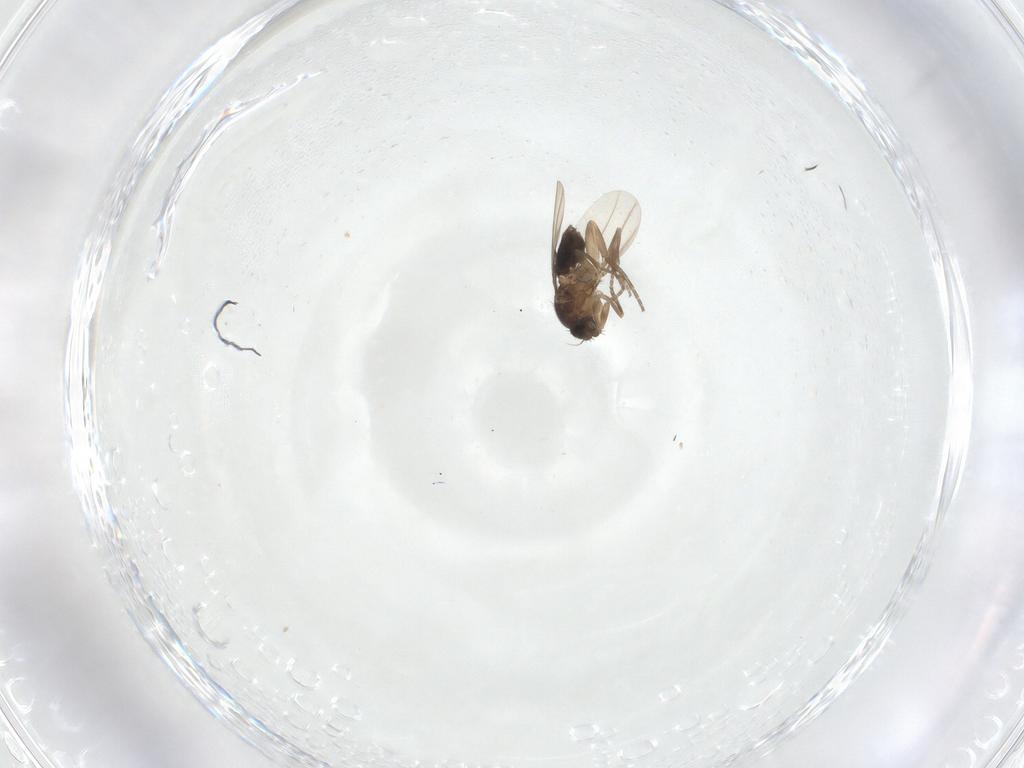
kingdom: Animalia
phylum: Arthropoda
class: Insecta
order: Diptera
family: Phoridae
